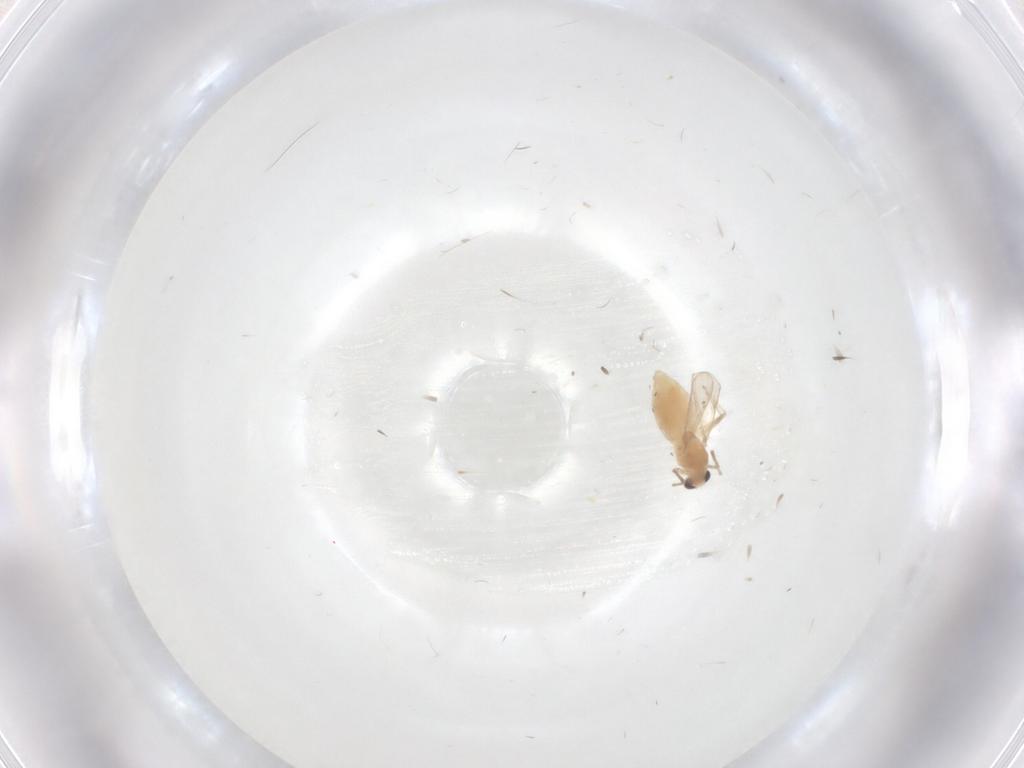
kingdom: Animalia
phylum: Arthropoda
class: Insecta
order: Diptera
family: Chironomidae
